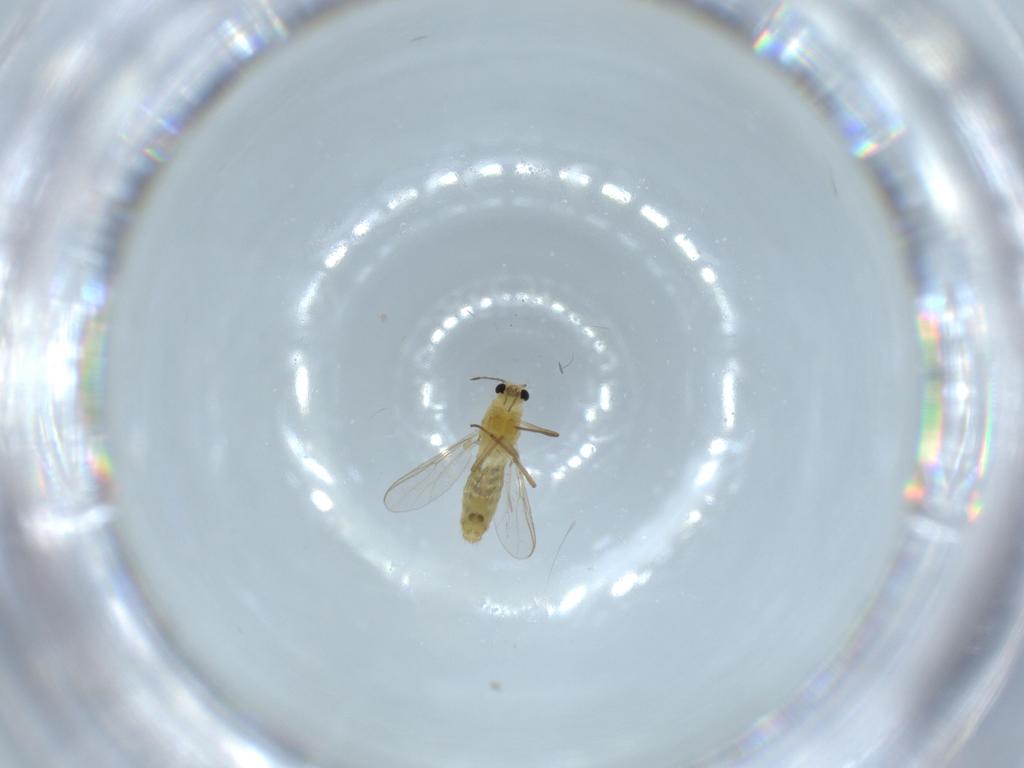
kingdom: Animalia
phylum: Arthropoda
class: Insecta
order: Diptera
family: Chironomidae
